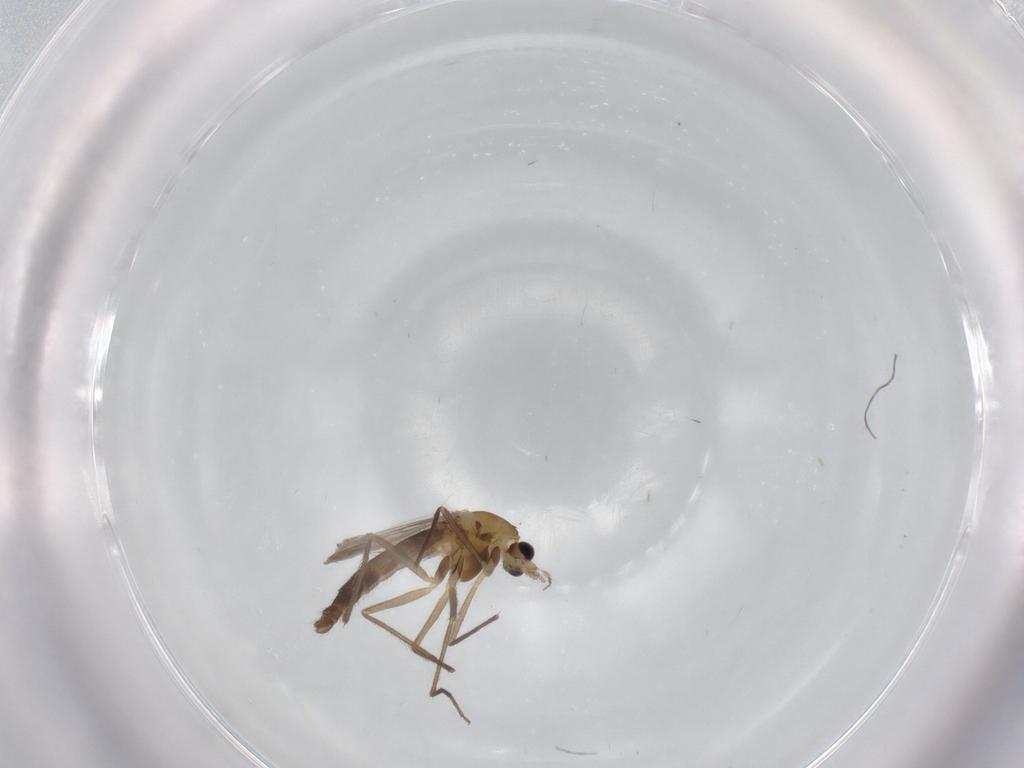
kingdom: Animalia
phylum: Arthropoda
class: Insecta
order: Diptera
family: Chironomidae
